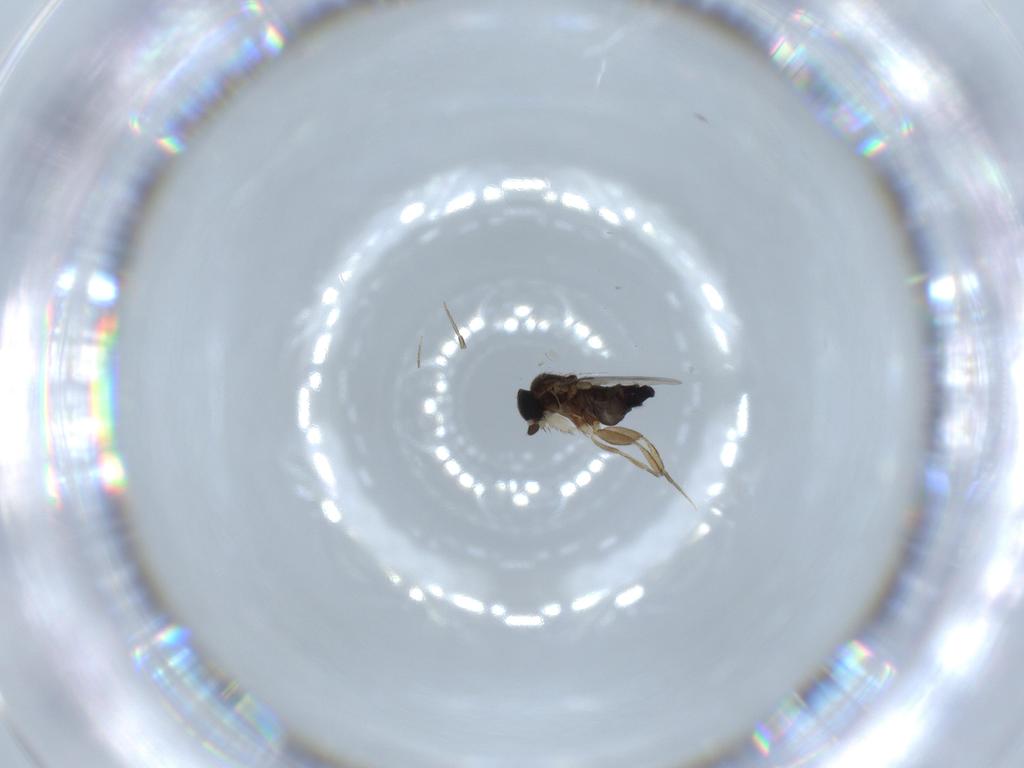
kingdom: Animalia
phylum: Arthropoda
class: Insecta
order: Diptera
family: Phoridae
